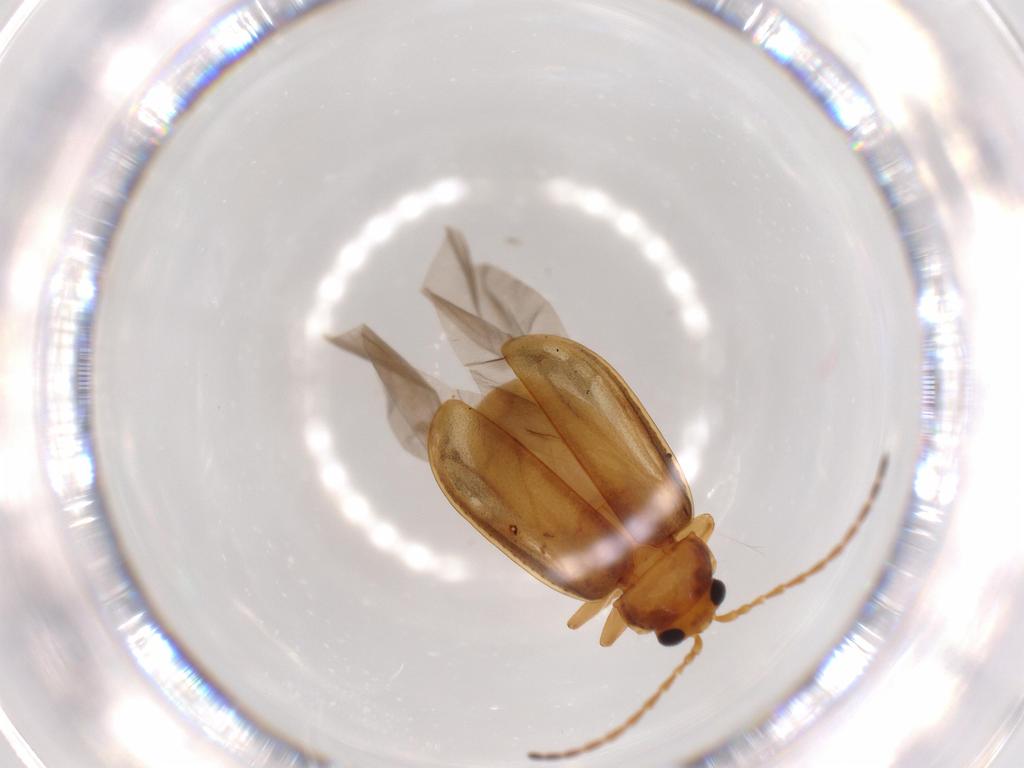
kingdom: Animalia
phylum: Arthropoda
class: Insecta
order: Coleoptera
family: Chrysomelidae
